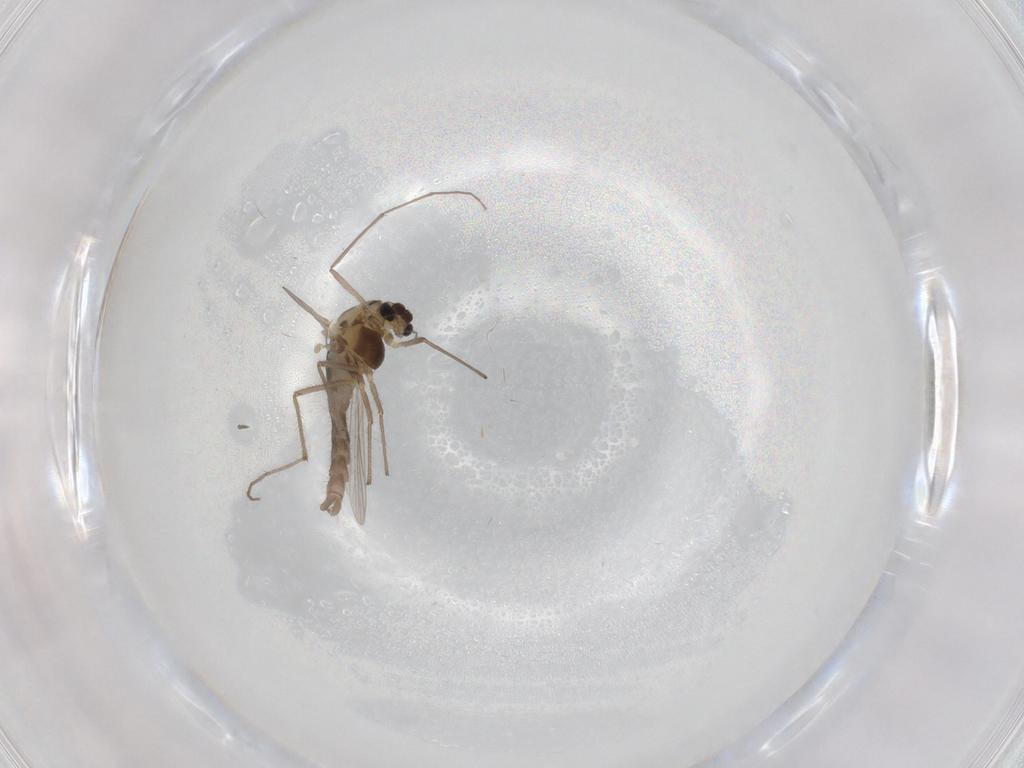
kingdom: Animalia
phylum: Arthropoda
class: Insecta
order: Diptera
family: Chironomidae
